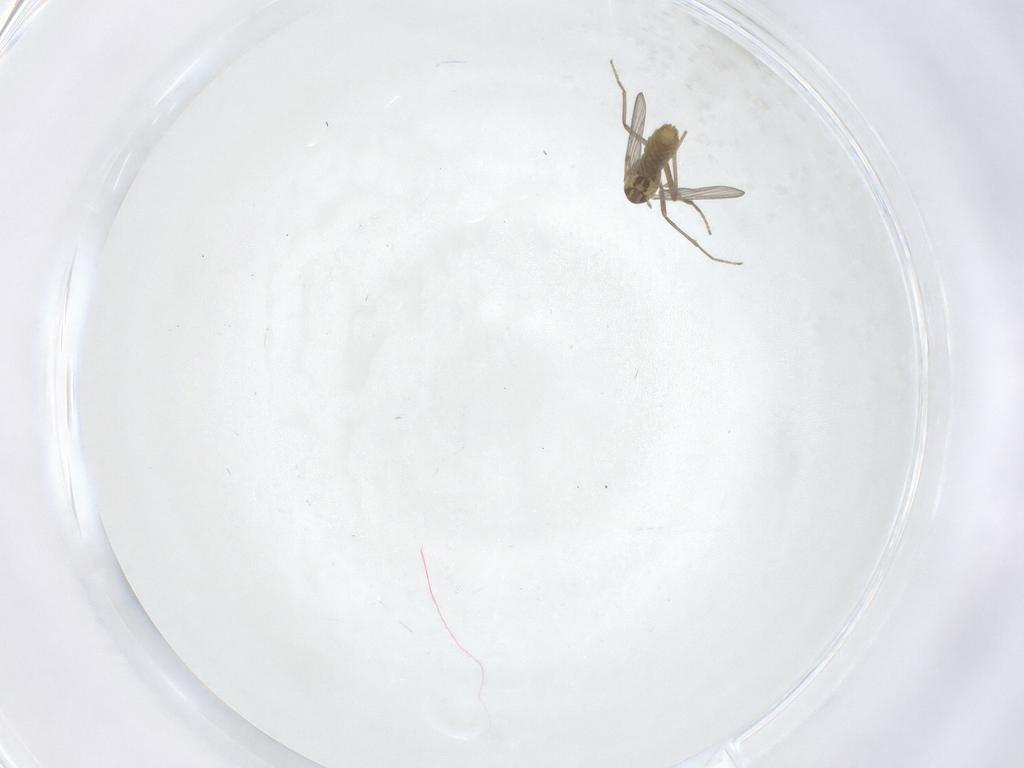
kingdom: Animalia
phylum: Arthropoda
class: Insecta
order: Diptera
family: Chironomidae
